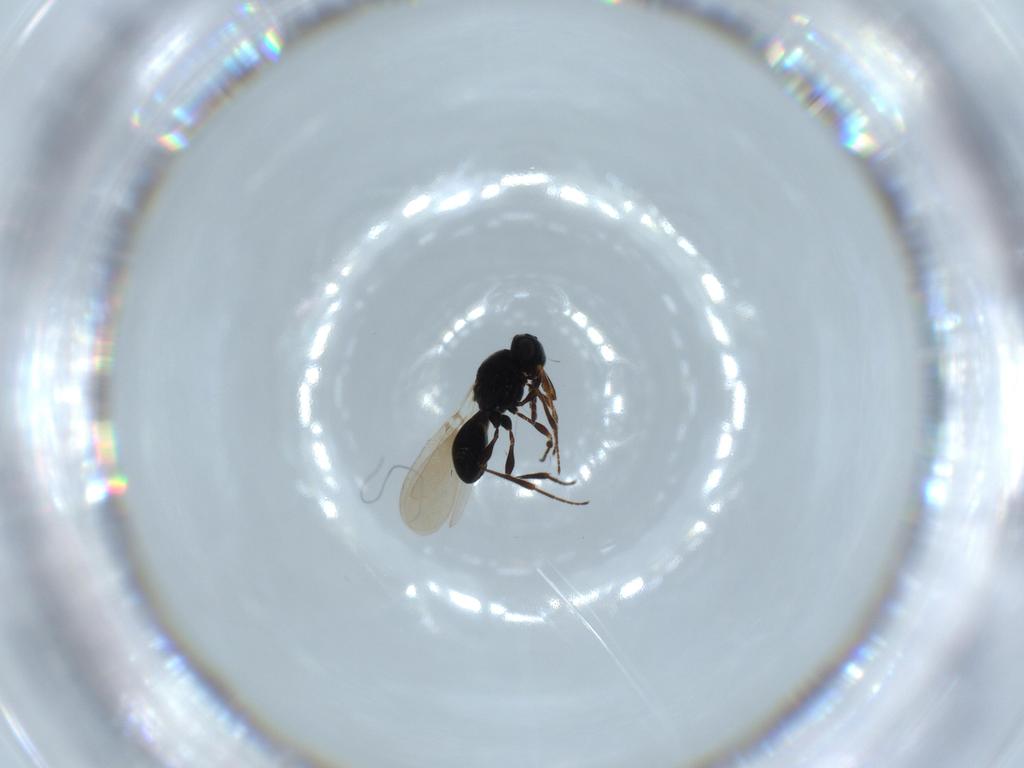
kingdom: Animalia
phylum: Arthropoda
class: Insecta
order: Hymenoptera
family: Platygastridae
